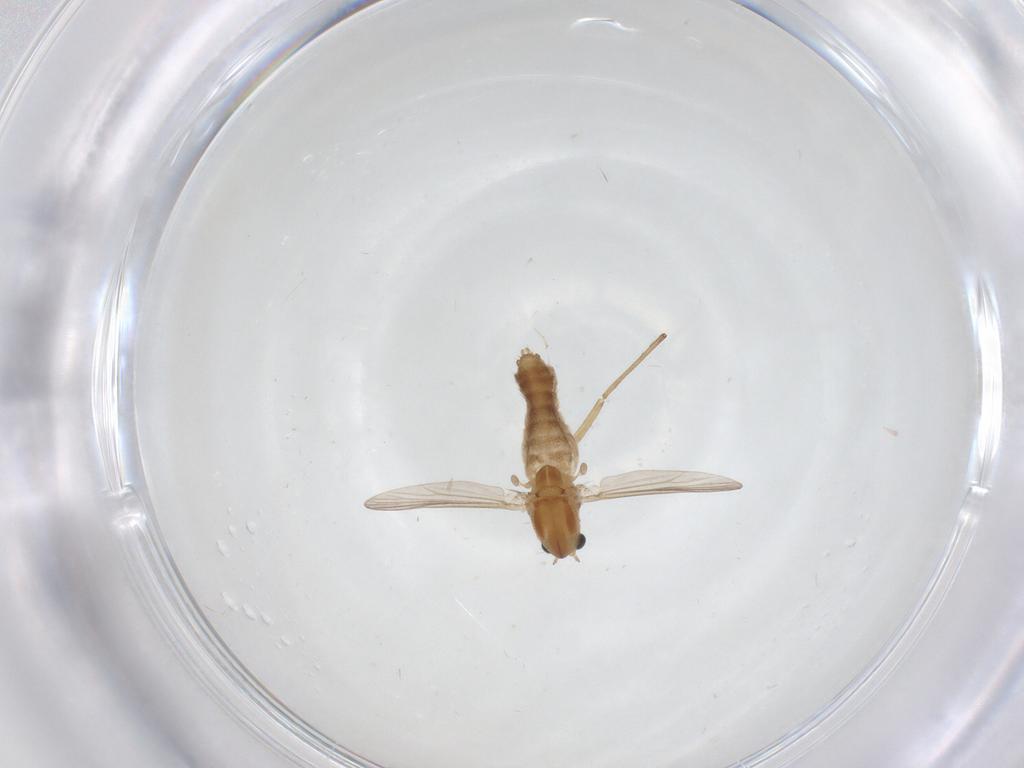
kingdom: Animalia
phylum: Arthropoda
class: Insecta
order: Diptera
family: Chironomidae
